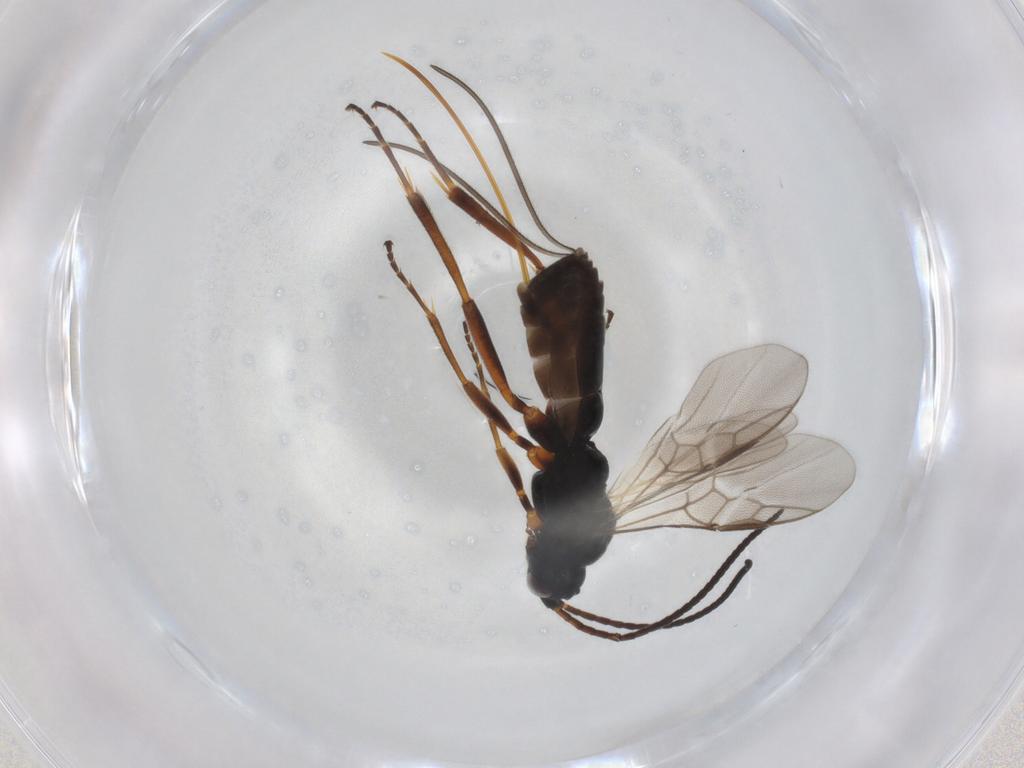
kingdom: Animalia
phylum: Arthropoda
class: Insecta
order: Hymenoptera
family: Braconidae
